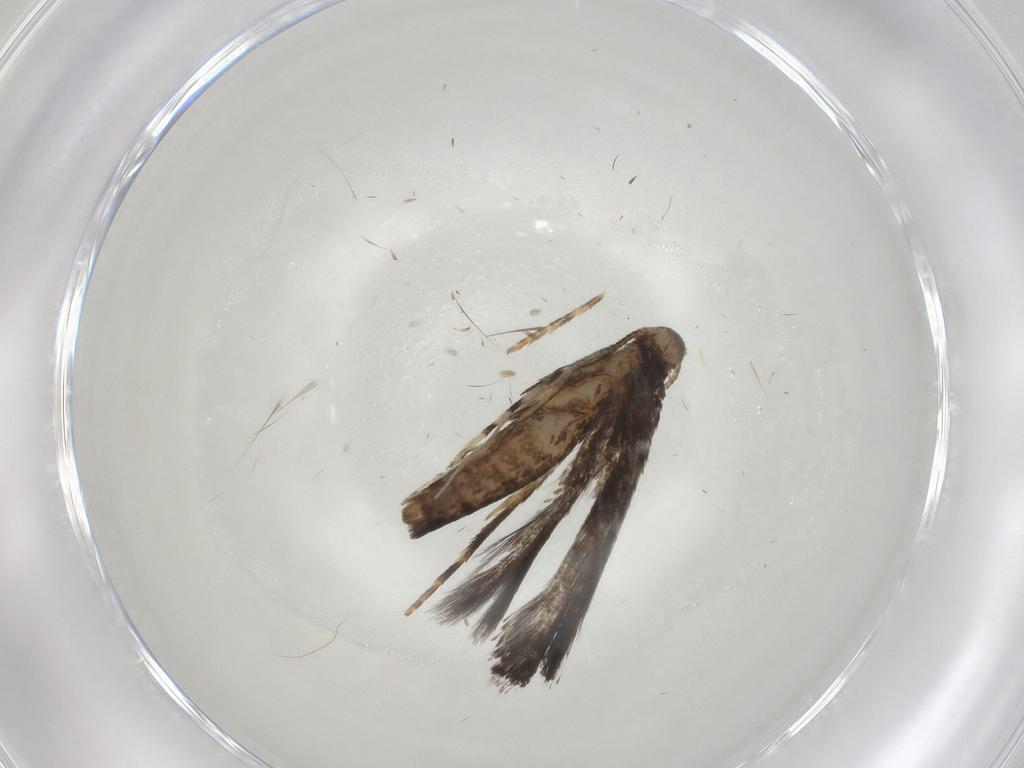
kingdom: Animalia
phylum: Arthropoda
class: Insecta
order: Lepidoptera
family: Gracillariidae
